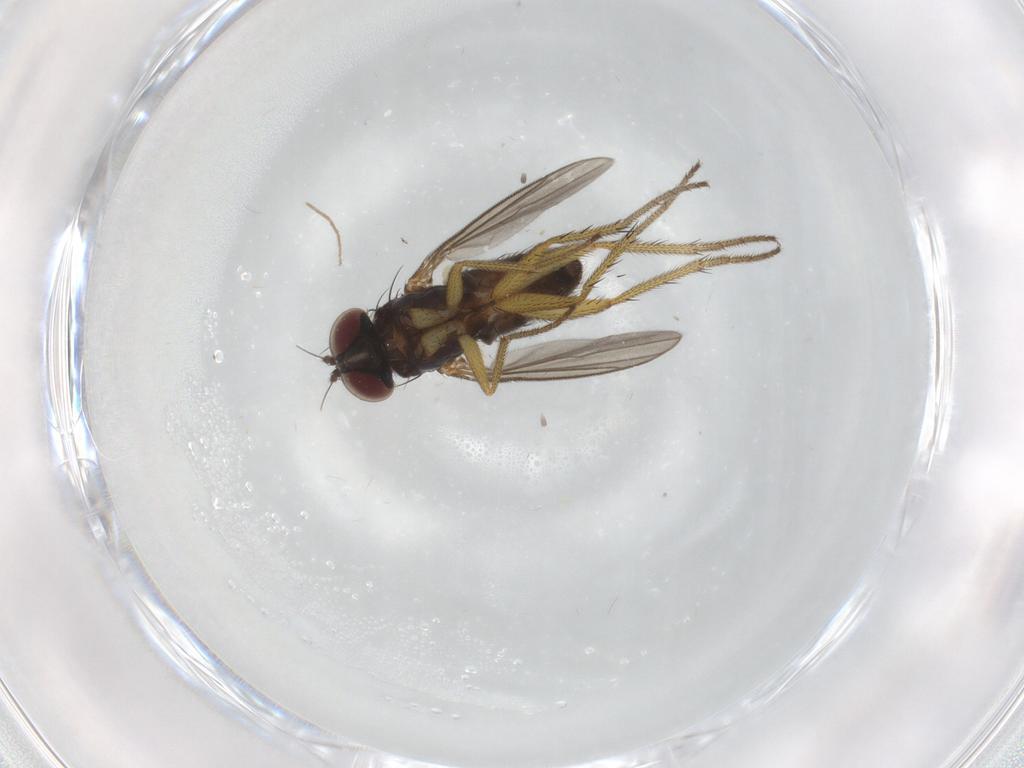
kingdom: Animalia
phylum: Arthropoda
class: Insecta
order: Diptera
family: Dolichopodidae
